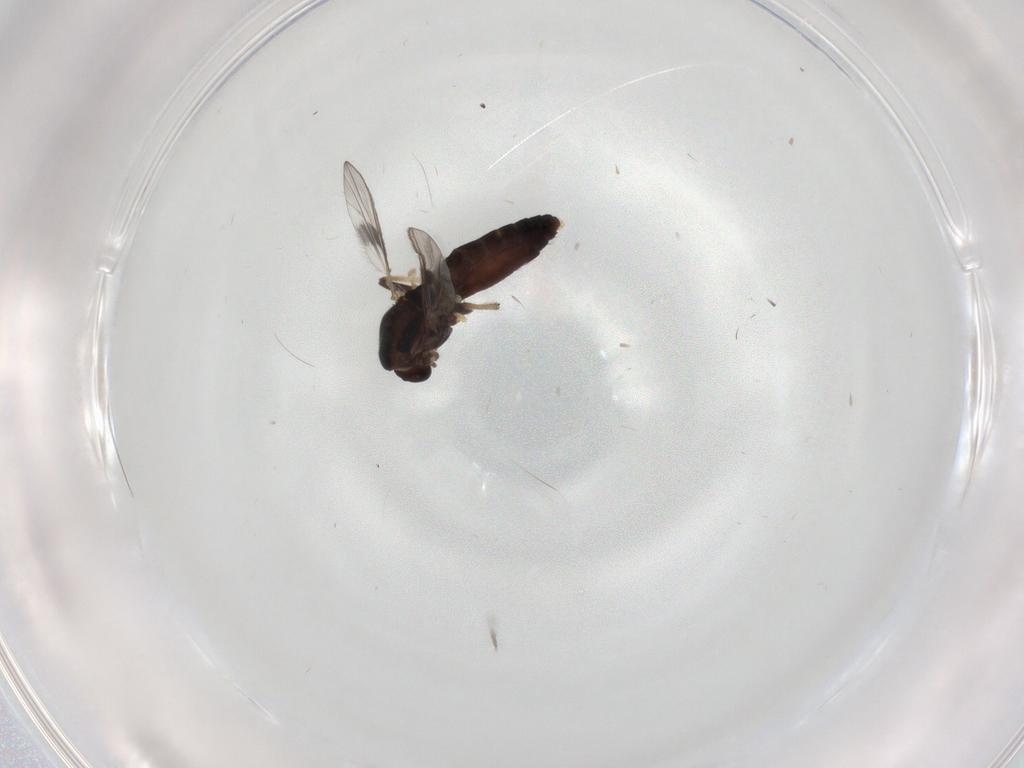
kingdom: Animalia
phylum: Arthropoda
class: Insecta
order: Diptera
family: Chironomidae
